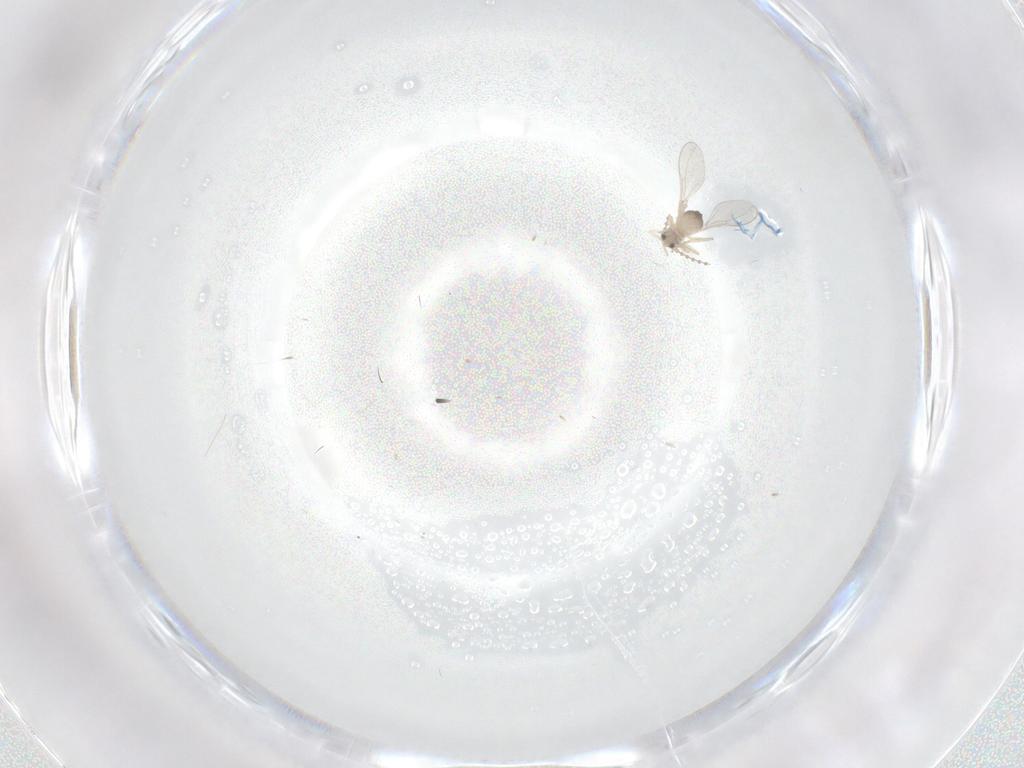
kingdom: Animalia
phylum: Arthropoda
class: Insecta
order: Diptera
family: Cecidomyiidae
